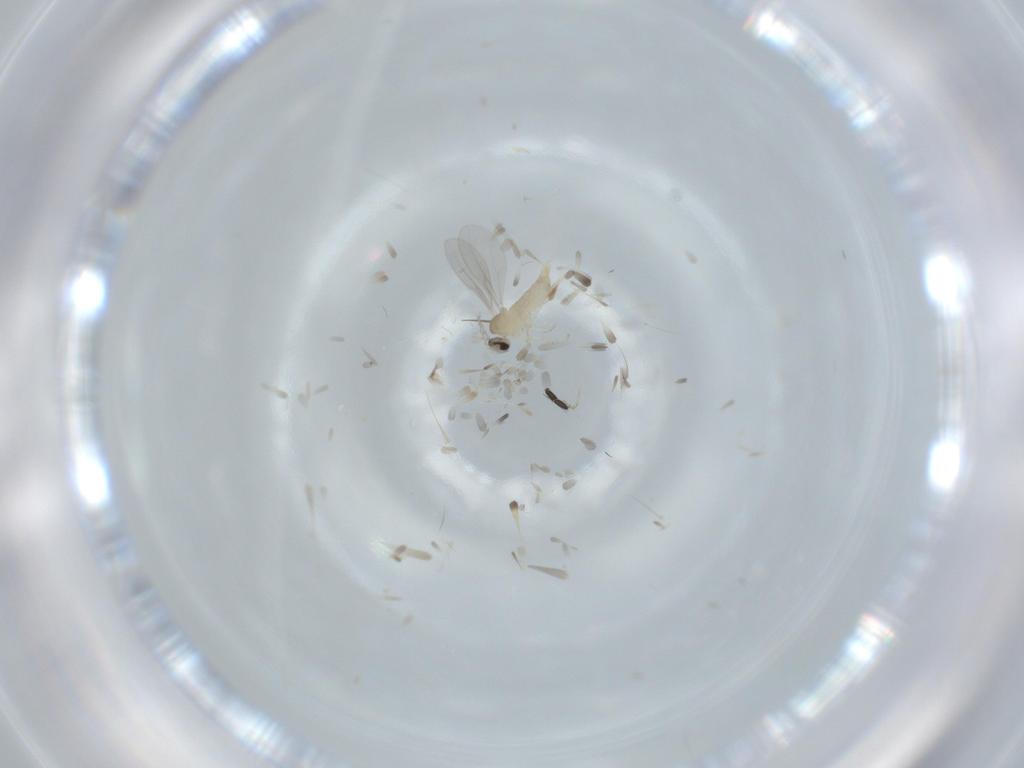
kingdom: Animalia
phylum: Arthropoda
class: Insecta
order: Diptera
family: Cecidomyiidae
